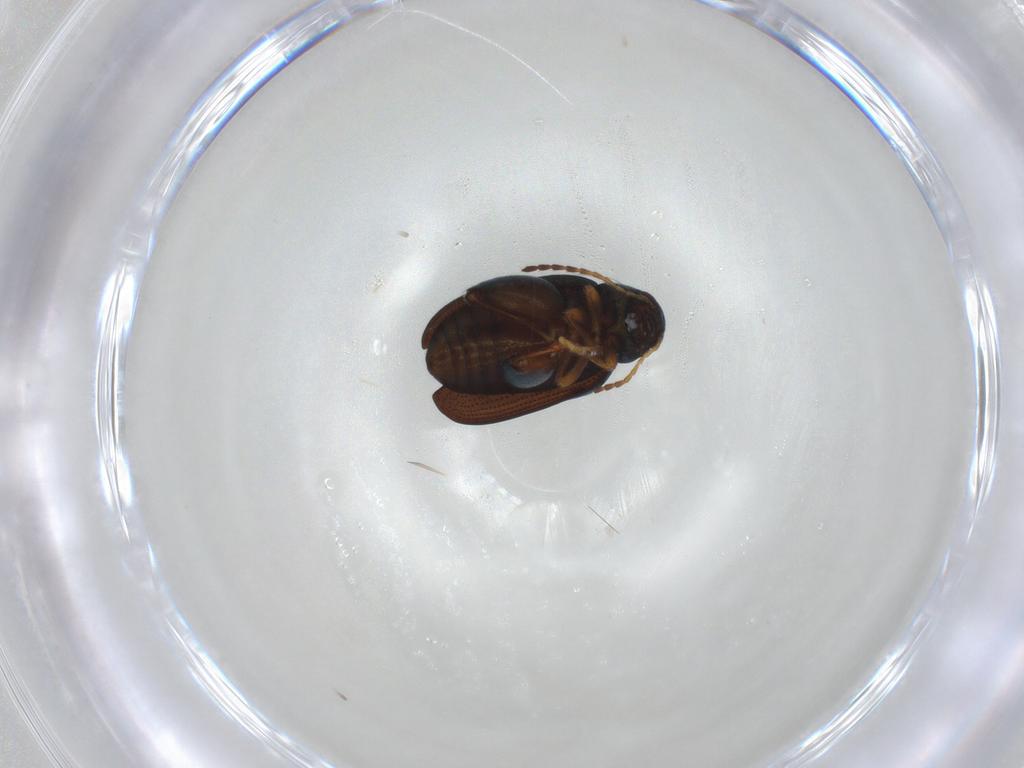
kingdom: Animalia
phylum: Arthropoda
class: Insecta
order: Coleoptera
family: Chrysomelidae
